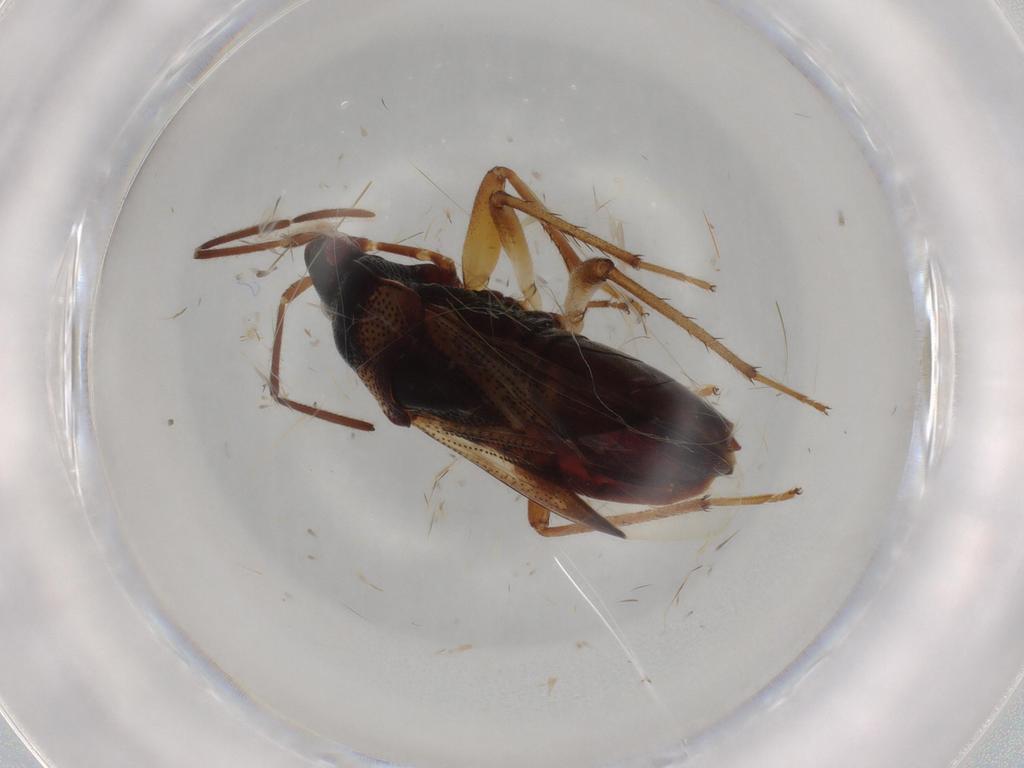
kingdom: Animalia
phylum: Arthropoda
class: Insecta
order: Hemiptera
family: Rhyparochromidae
